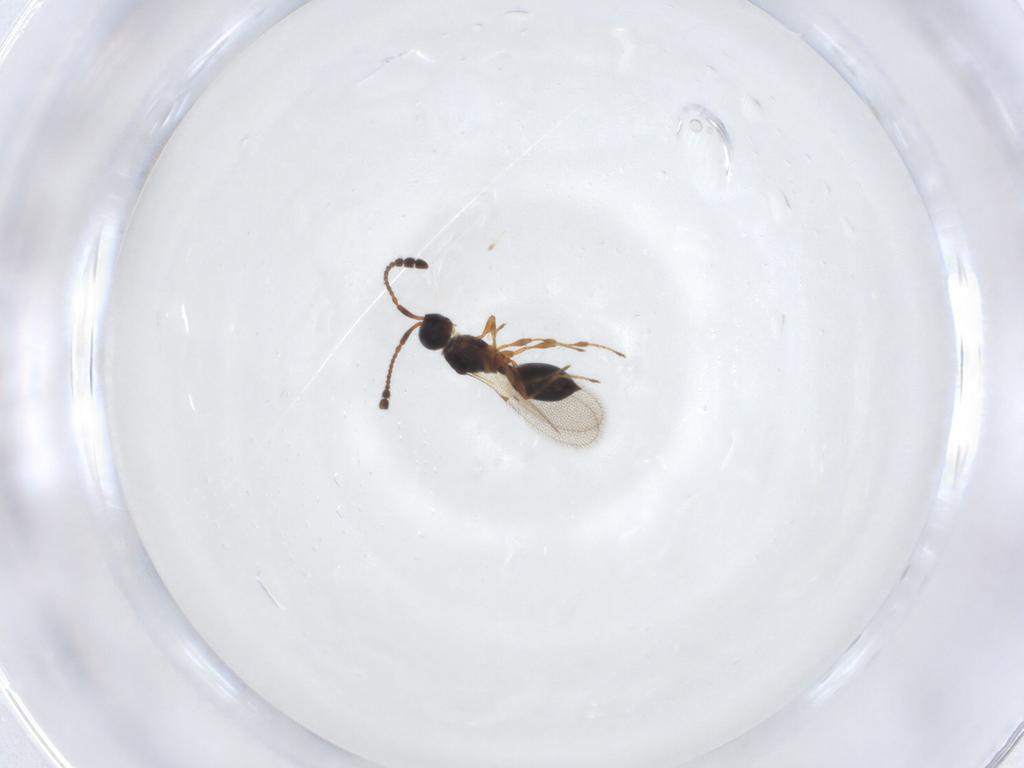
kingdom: Animalia
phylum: Arthropoda
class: Insecta
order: Hymenoptera
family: Diapriidae
